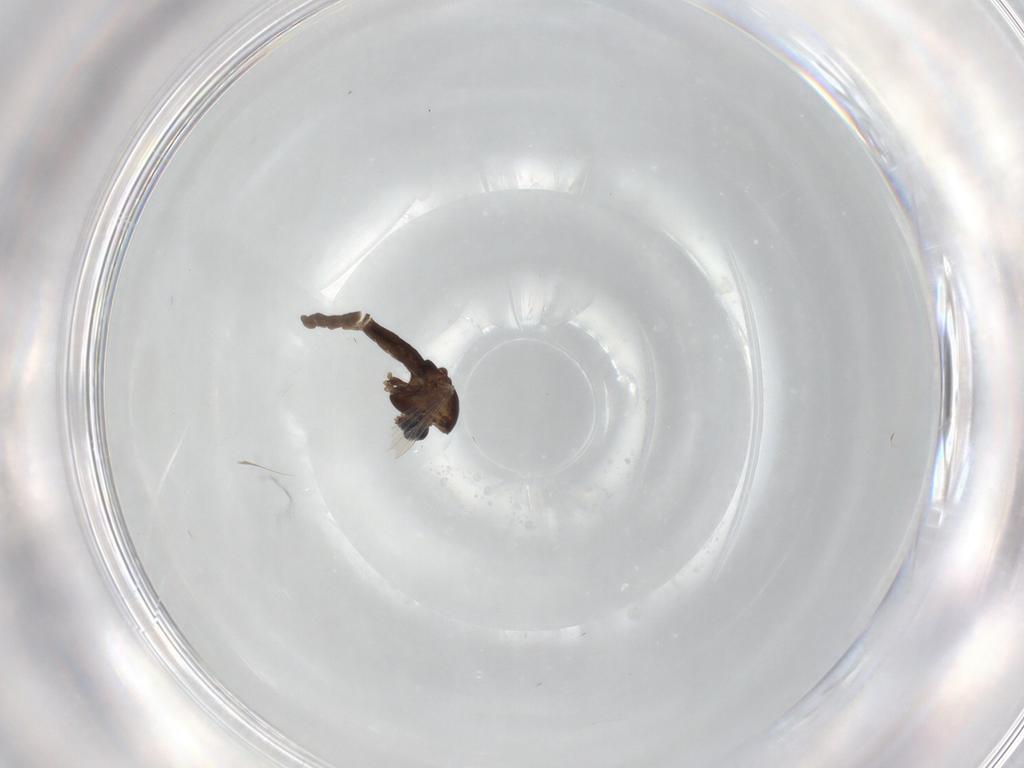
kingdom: Animalia
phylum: Arthropoda
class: Insecta
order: Diptera
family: Chironomidae
